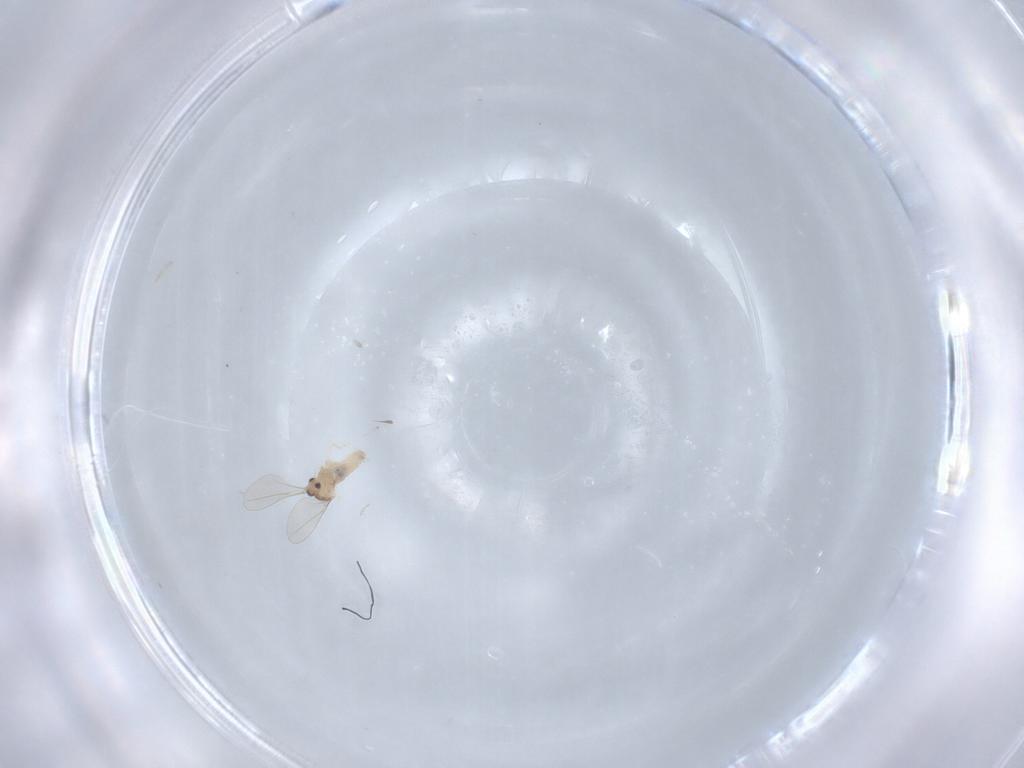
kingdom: Animalia
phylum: Arthropoda
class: Insecta
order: Diptera
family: Cecidomyiidae
